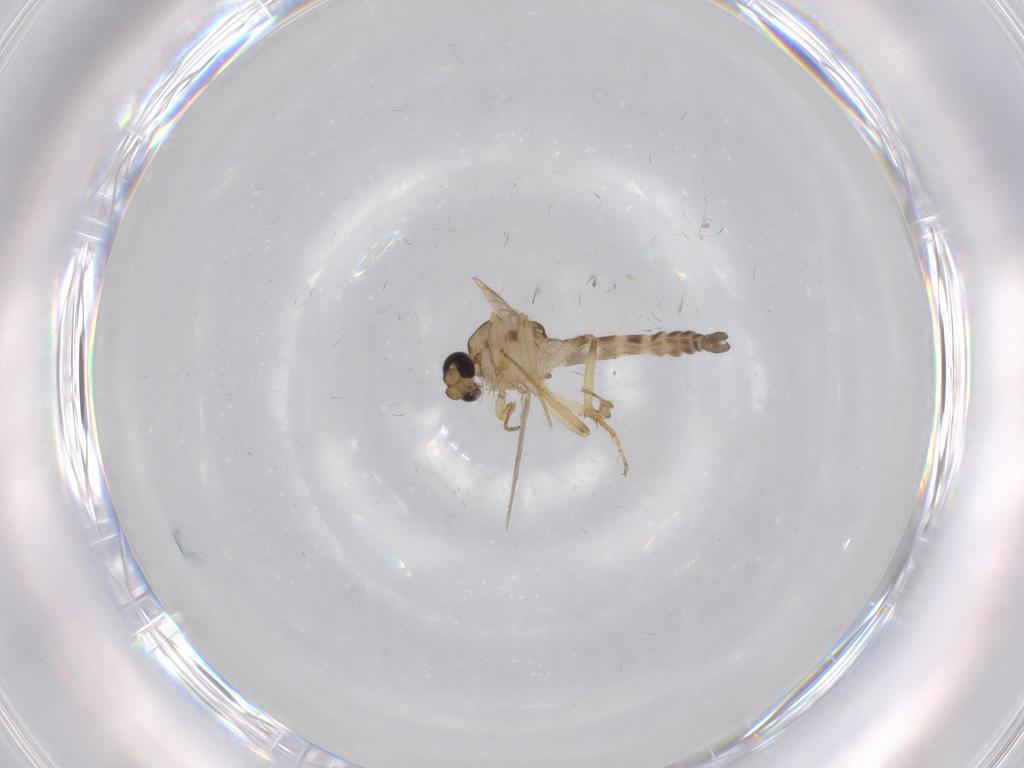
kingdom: Animalia
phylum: Arthropoda
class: Insecta
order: Diptera
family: Ceratopogonidae
